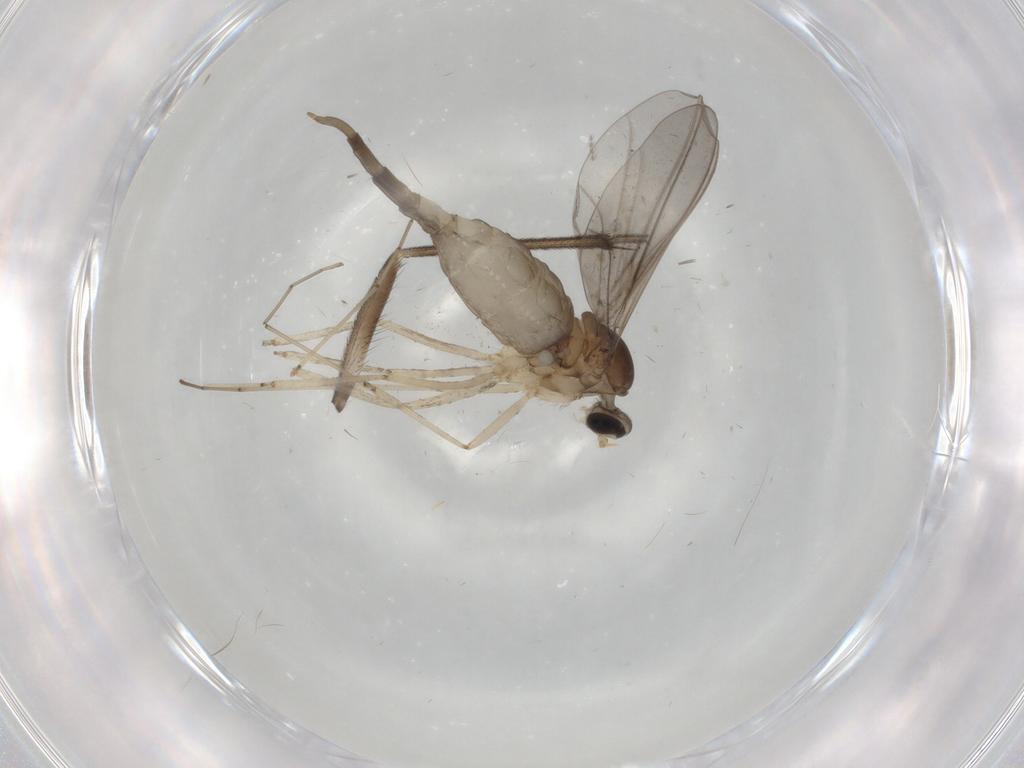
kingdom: Animalia
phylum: Arthropoda
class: Insecta
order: Diptera
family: Cecidomyiidae
